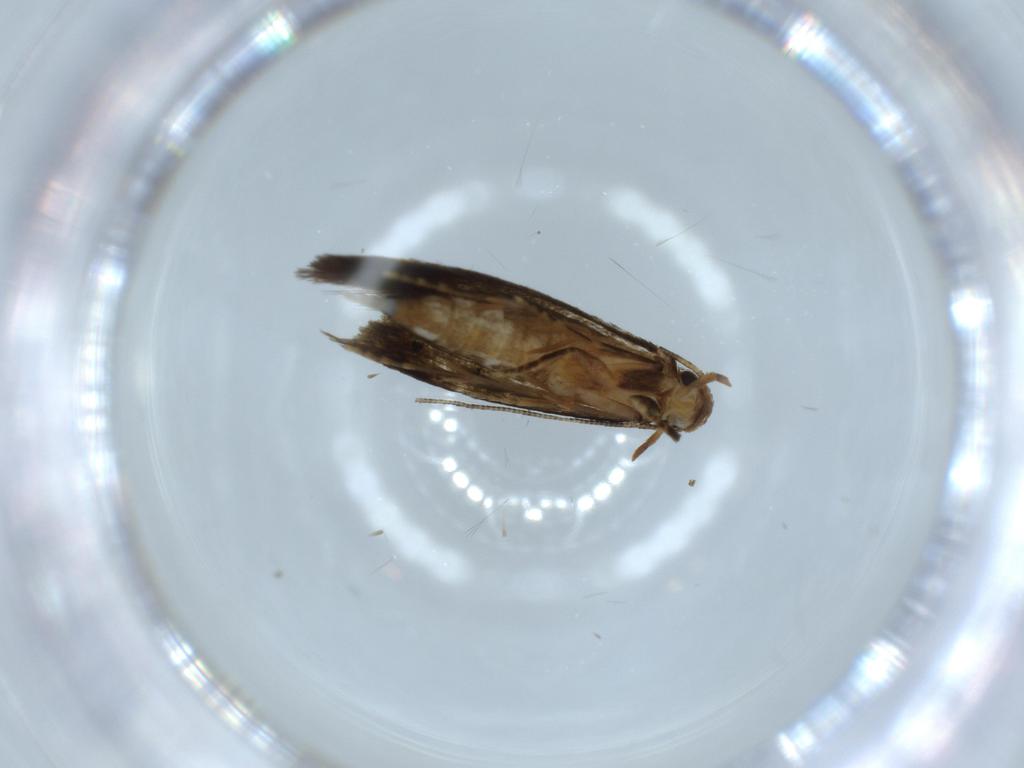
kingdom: Animalia
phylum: Arthropoda
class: Insecta
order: Lepidoptera
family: Tineidae
